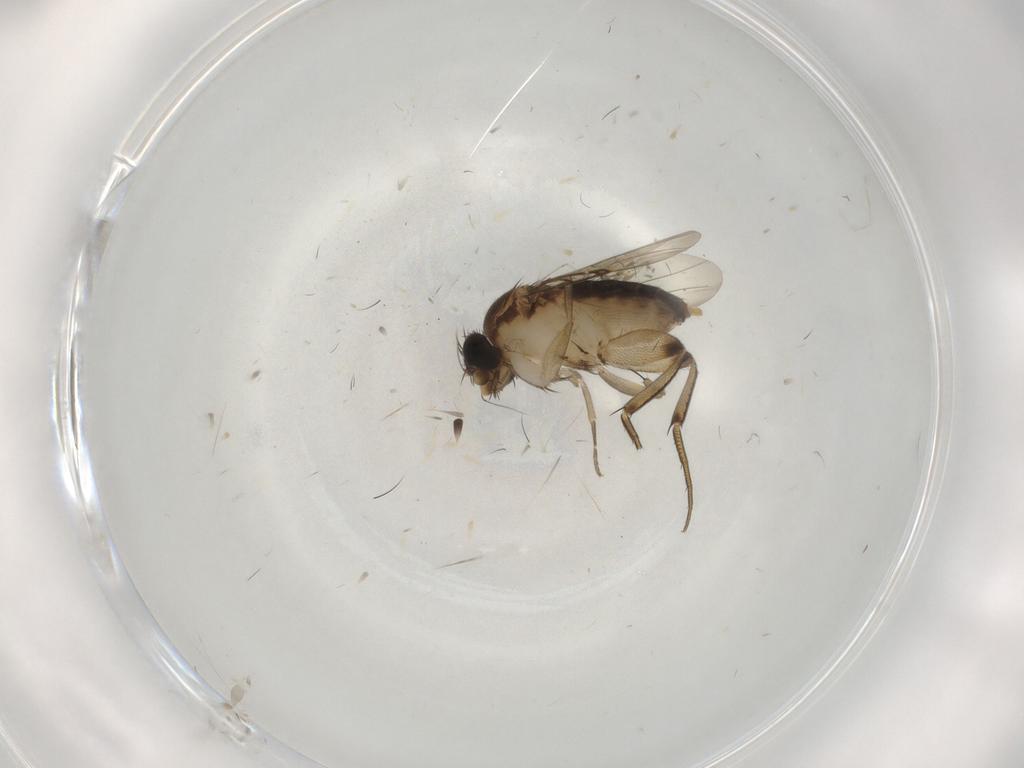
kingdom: Animalia
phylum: Arthropoda
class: Insecta
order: Diptera
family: Phoridae
